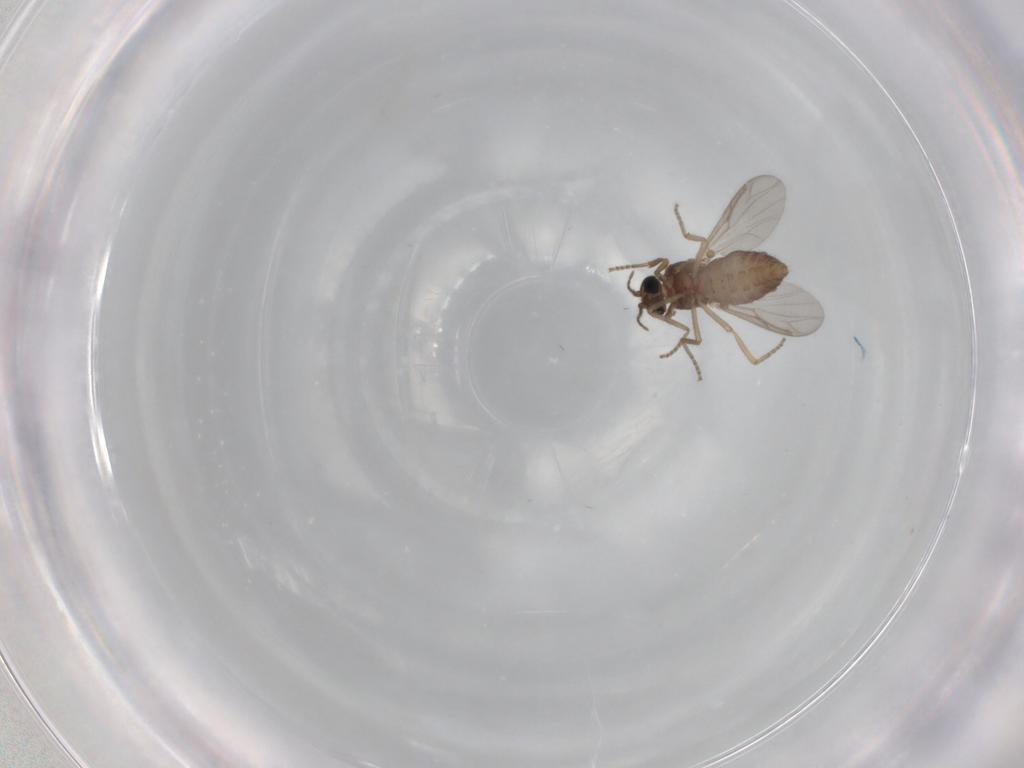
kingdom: Animalia
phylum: Arthropoda
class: Insecta
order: Diptera
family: Ceratopogonidae
